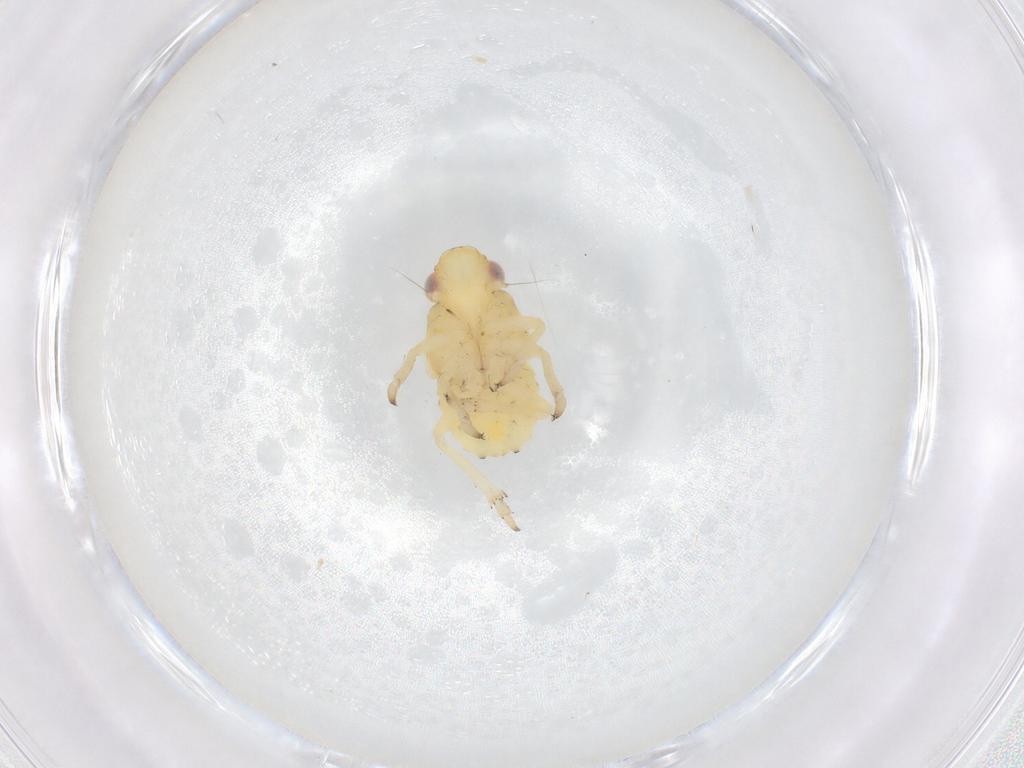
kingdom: Animalia
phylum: Arthropoda
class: Insecta
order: Hemiptera
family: Caliscelidae
